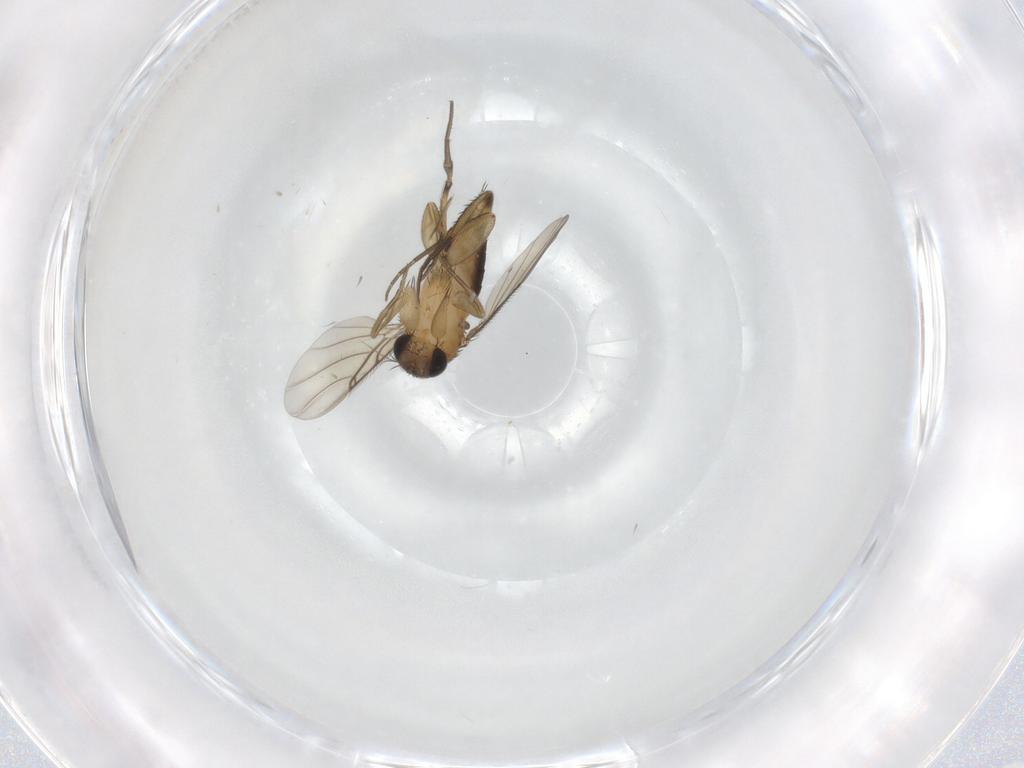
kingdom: Animalia
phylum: Arthropoda
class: Insecta
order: Diptera
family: Phoridae
